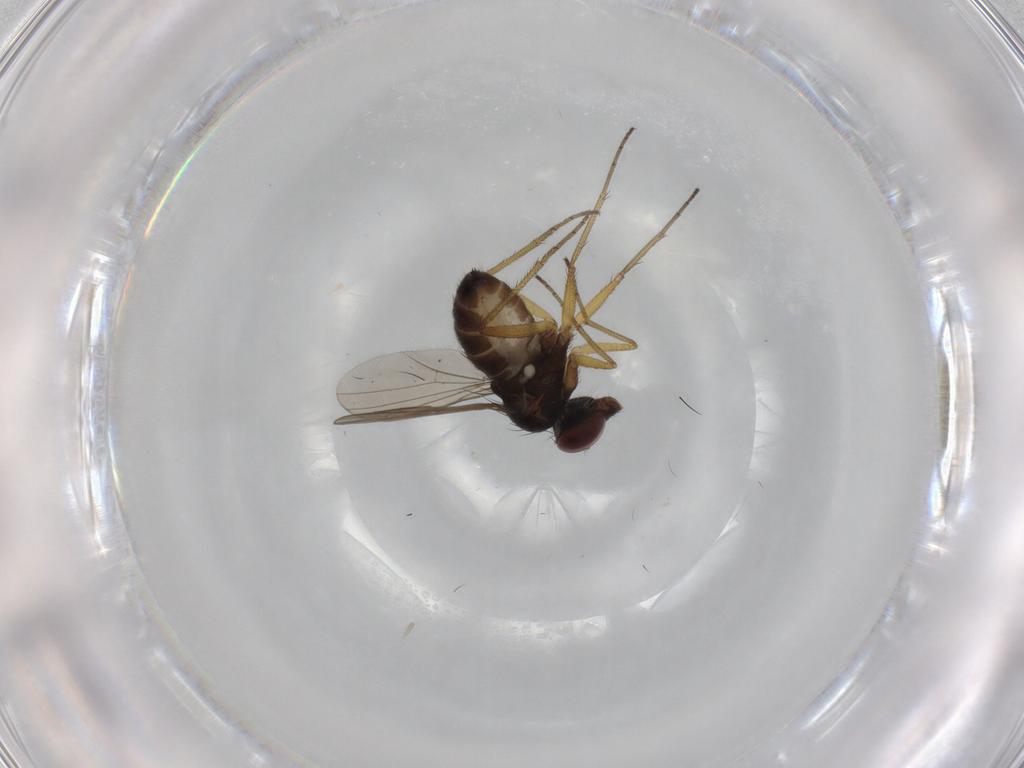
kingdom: Animalia
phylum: Arthropoda
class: Insecta
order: Diptera
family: Dolichopodidae
